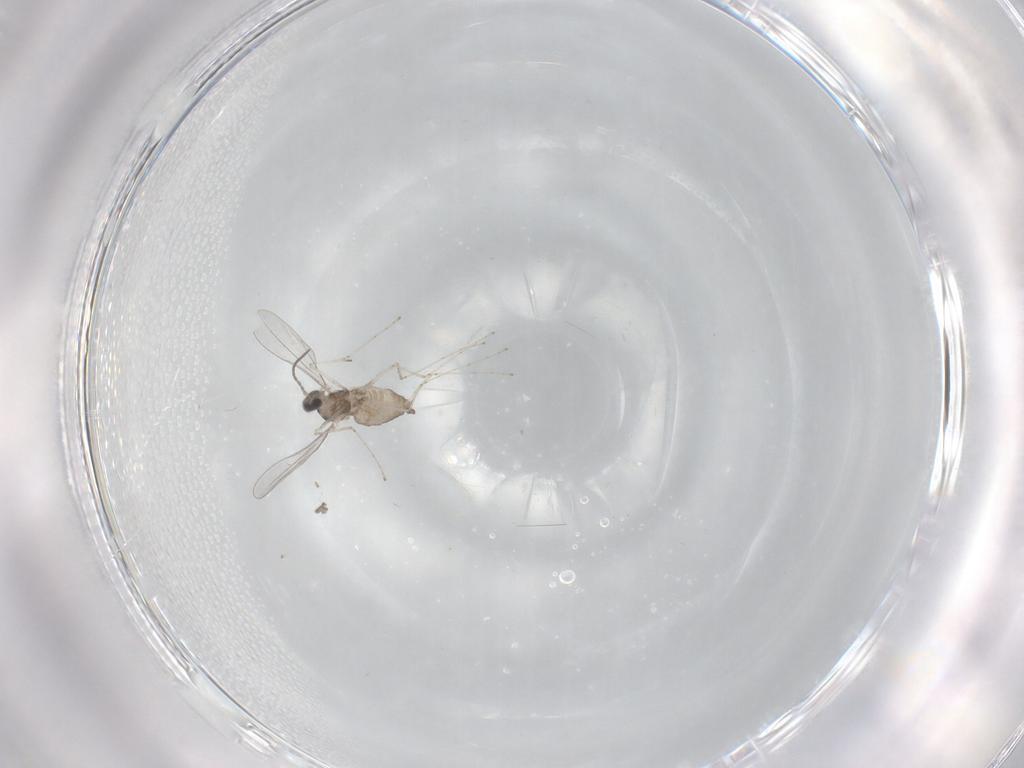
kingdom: Animalia
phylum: Arthropoda
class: Insecta
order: Diptera
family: Cecidomyiidae
